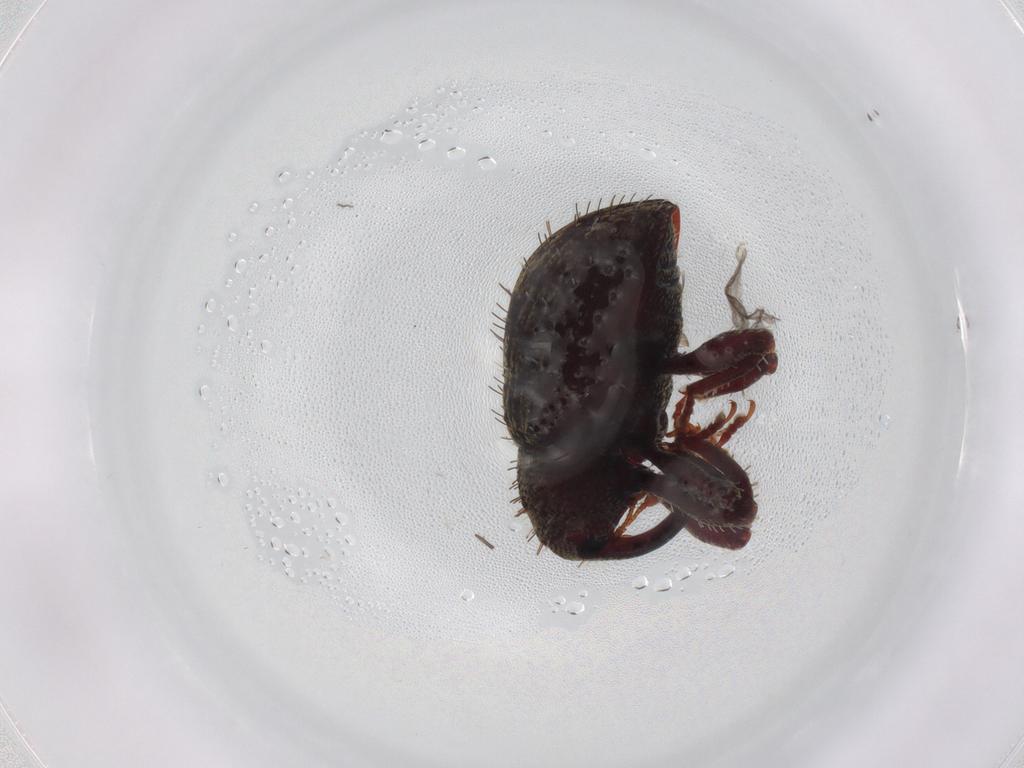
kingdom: Animalia
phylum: Arthropoda
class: Insecta
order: Coleoptera
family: Curculionidae
